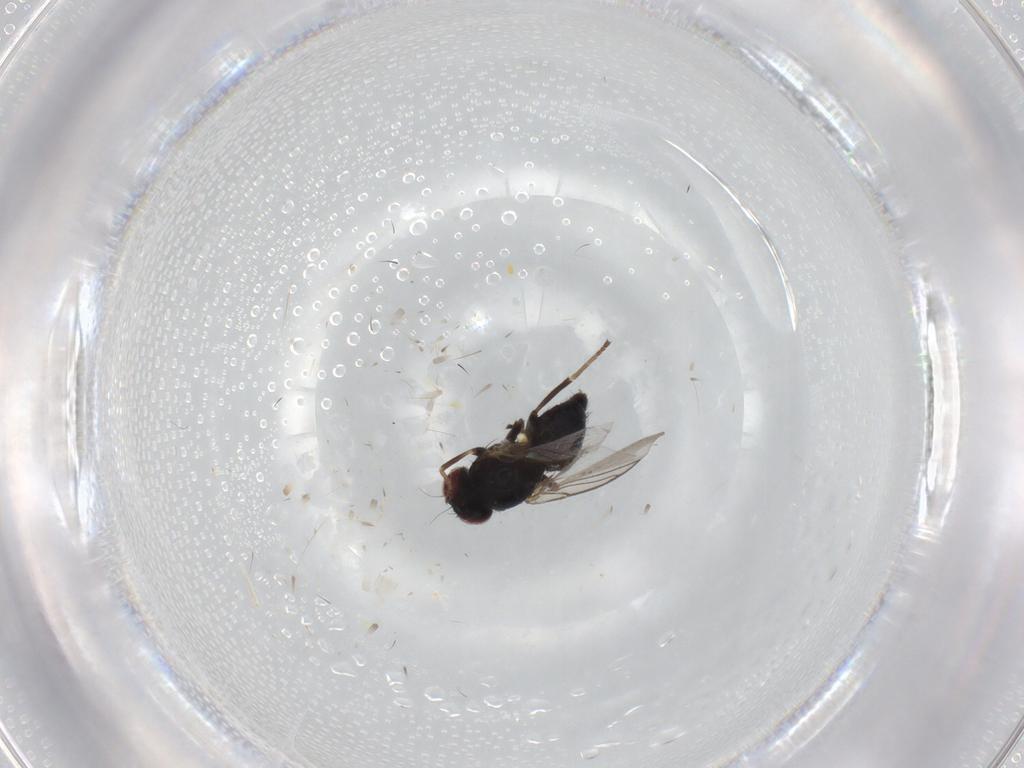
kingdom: Animalia
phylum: Arthropoda
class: Insecta
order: Diptera
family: Agromyzidae
